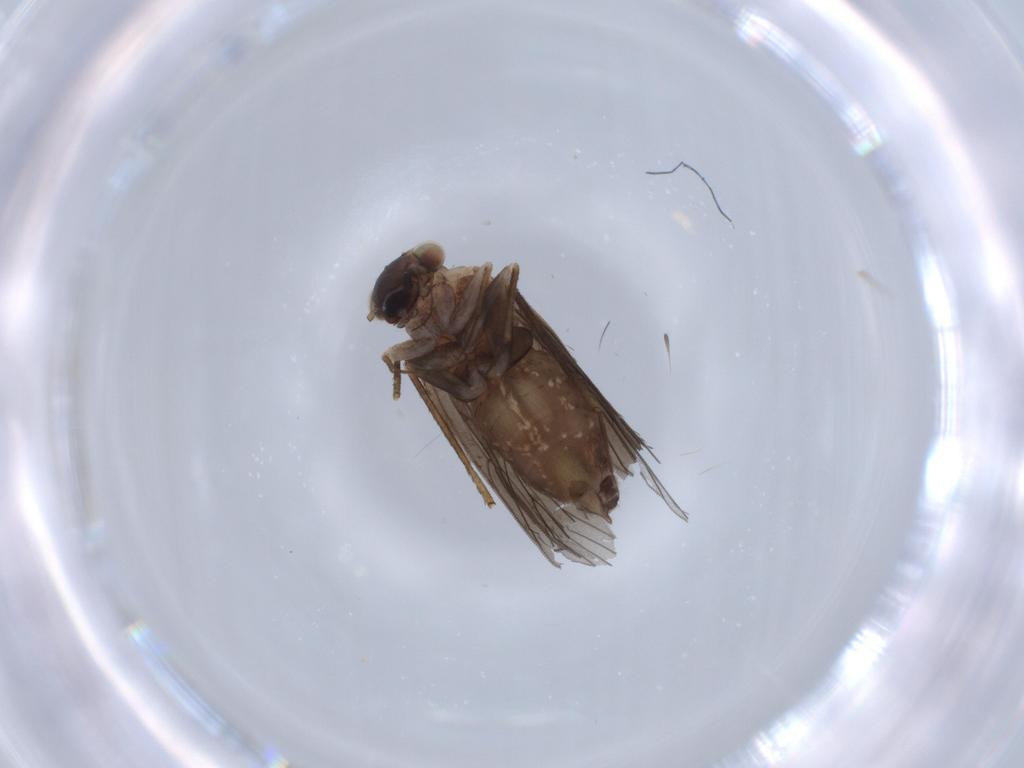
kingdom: Animalia
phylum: Arthropoda
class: Insecta
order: Psocodea
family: Lepidopsocidae
